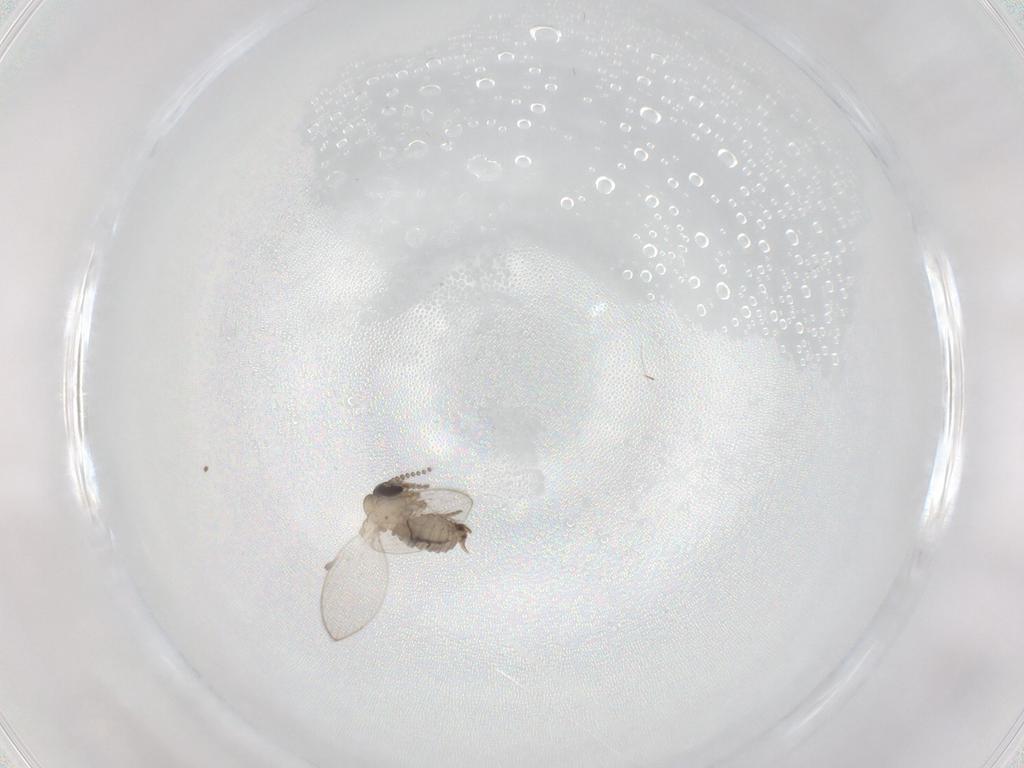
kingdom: Animalia
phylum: Arthropoda
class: Insecta
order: Diptera
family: Psychodidae
